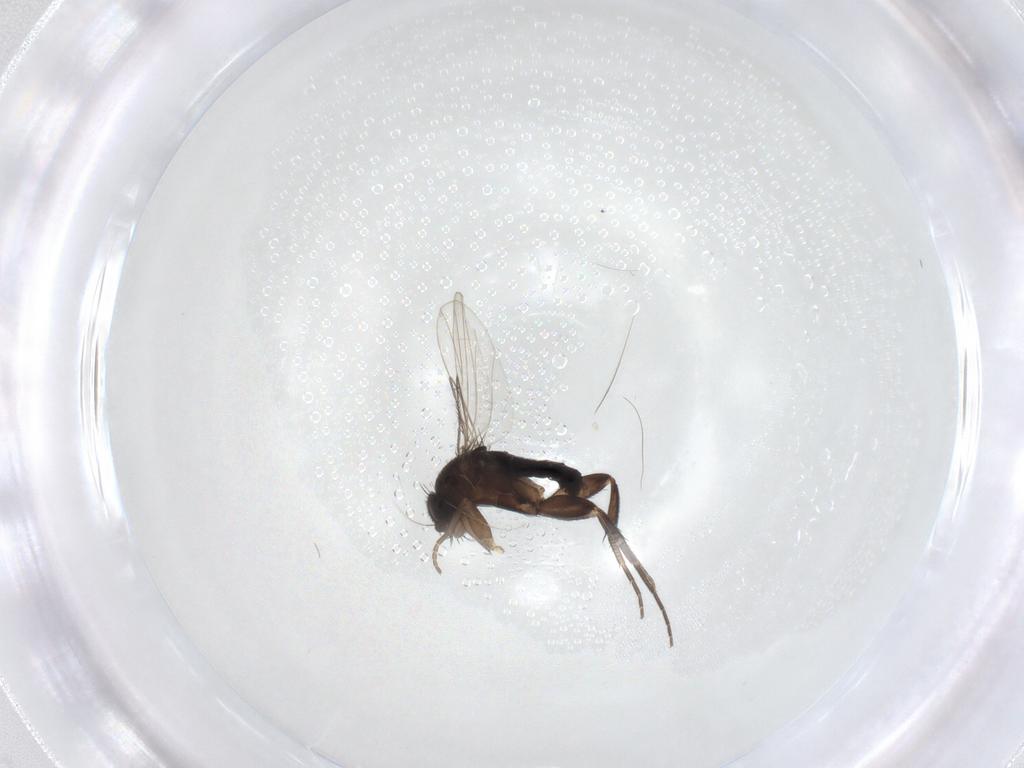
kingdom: Animalia
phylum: Arthropoda
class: Insecta
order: Diptera
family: Phoridae
